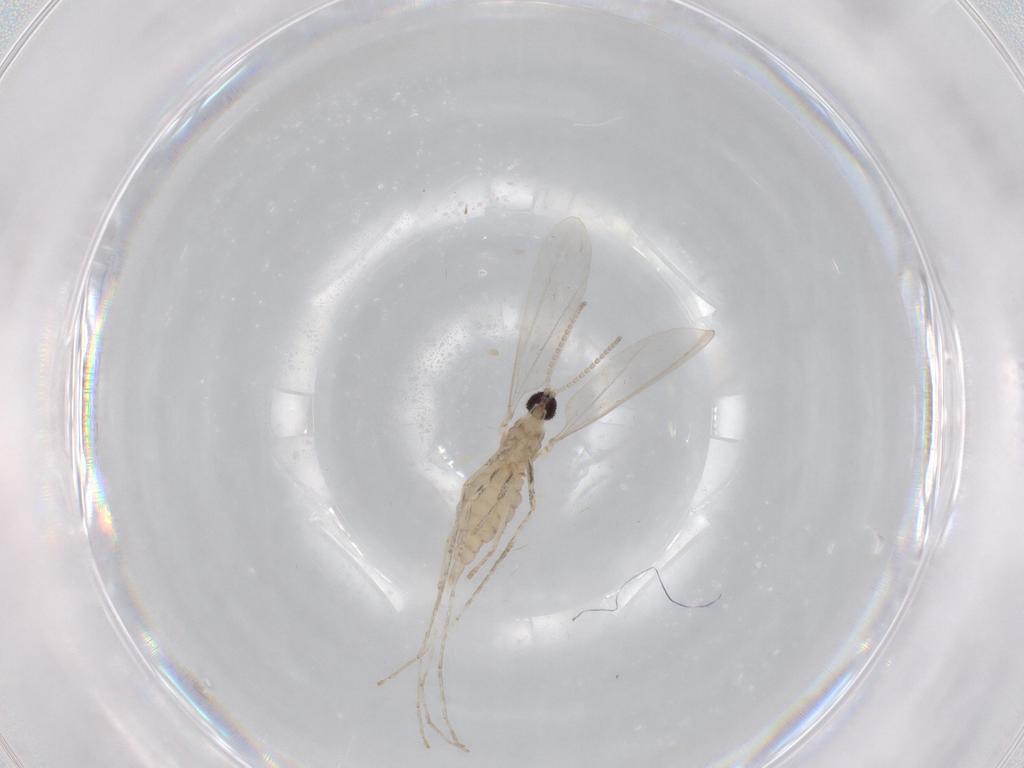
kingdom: Animalia
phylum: Arthropoda
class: Insecta
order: Diptera
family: Cecidomyiidae
